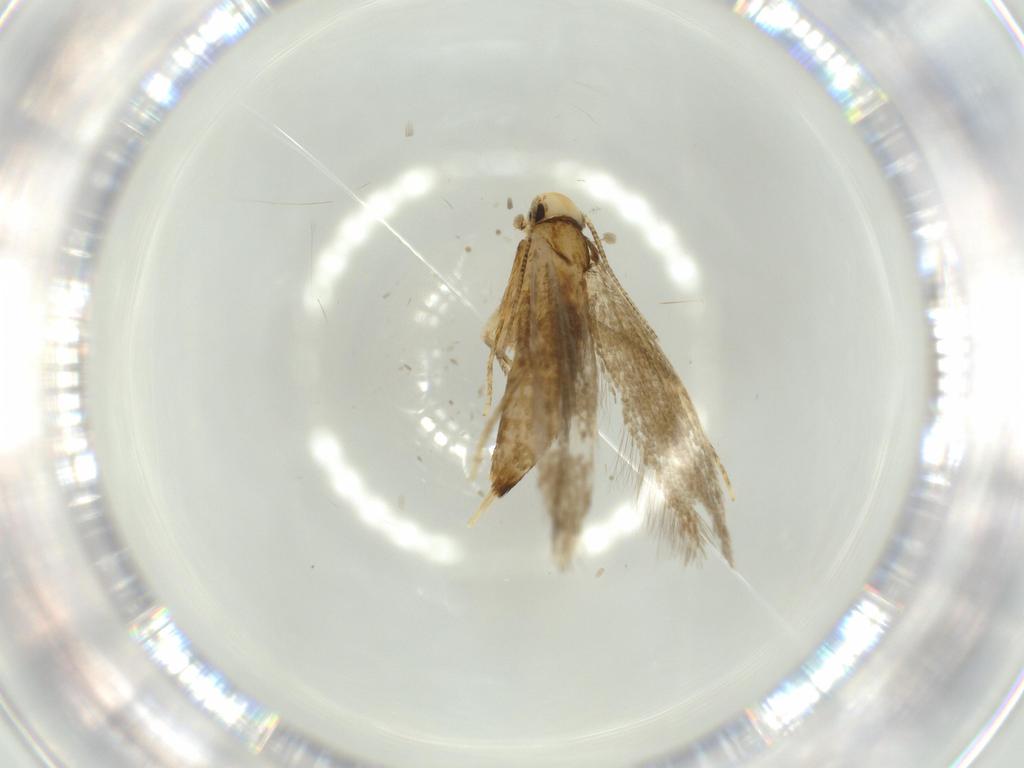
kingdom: Animalia
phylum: Arthropoda
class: Insecta
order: Lepidoptera
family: Tineidae
